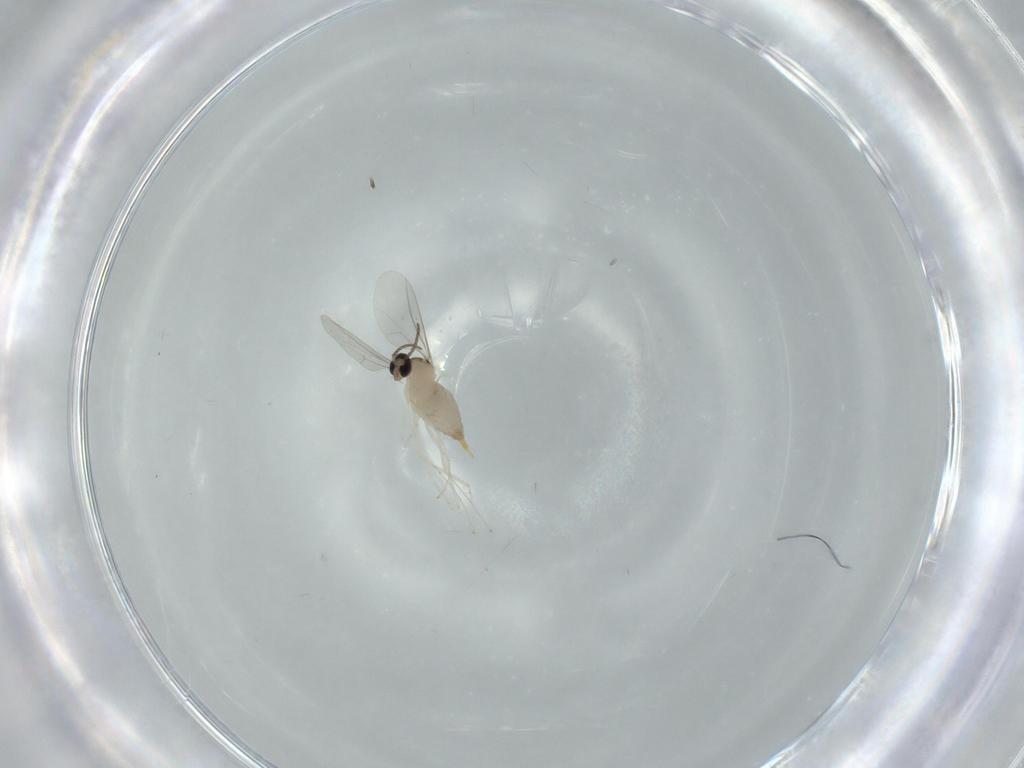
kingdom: Animalia
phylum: Arthropoda
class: Insecta
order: Diptera
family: Cecidomyiidae
